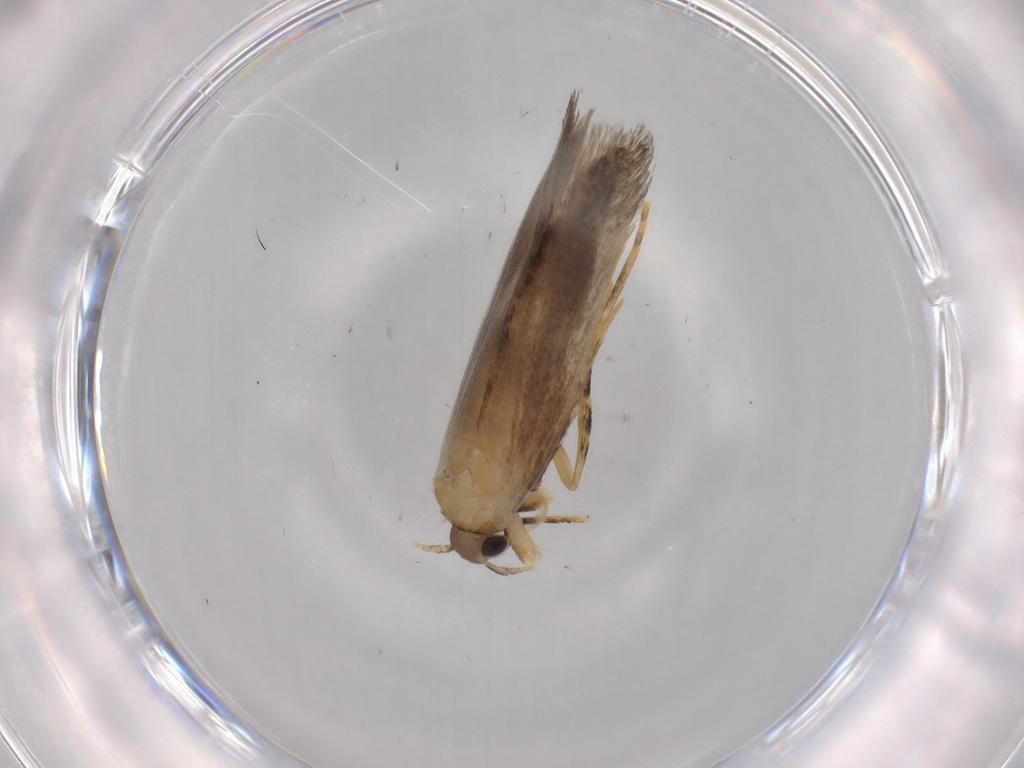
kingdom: Animalia
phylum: Arthropoda
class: Insecta
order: Lepidoptera
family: Autostichidae
